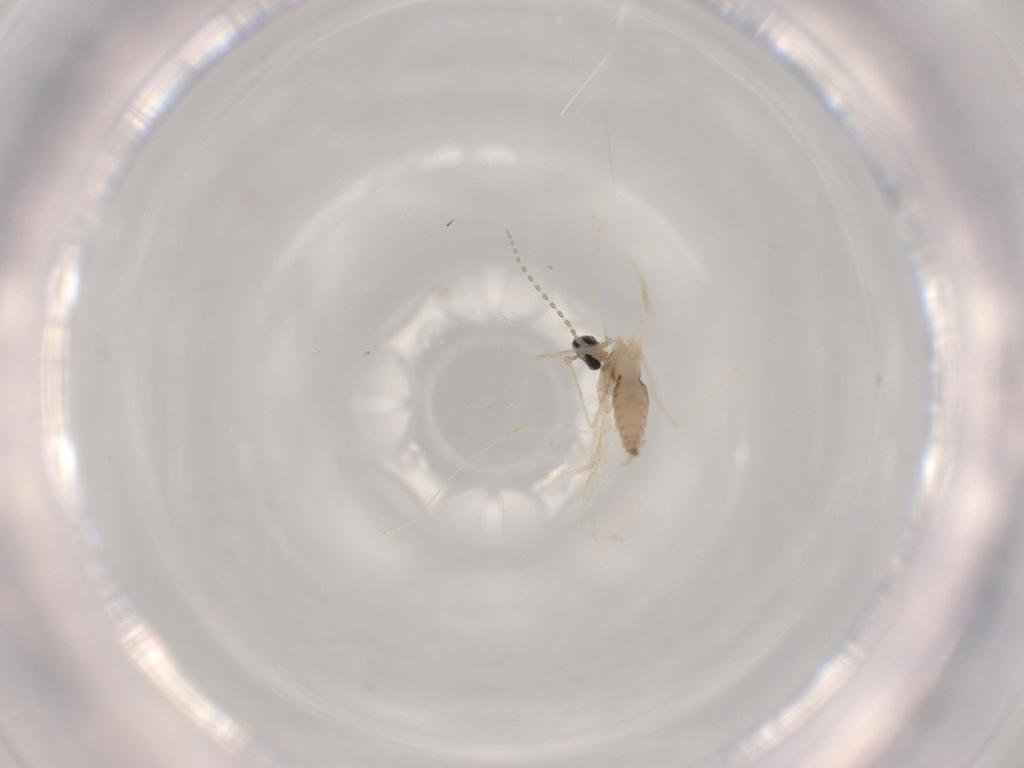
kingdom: Animalia
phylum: Arthropoda
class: Insecta
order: Diptera
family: Cecidomyiidae
